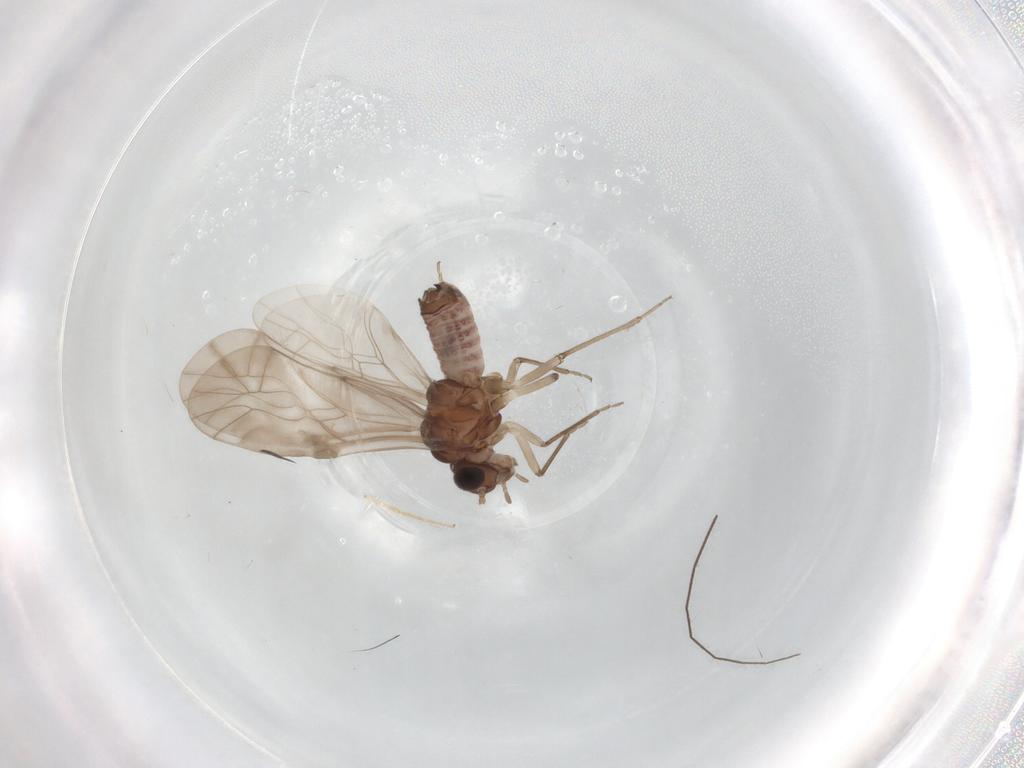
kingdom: Animalia
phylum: Arthropoda
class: Insecta
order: Psocodea
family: Peripsocidae
